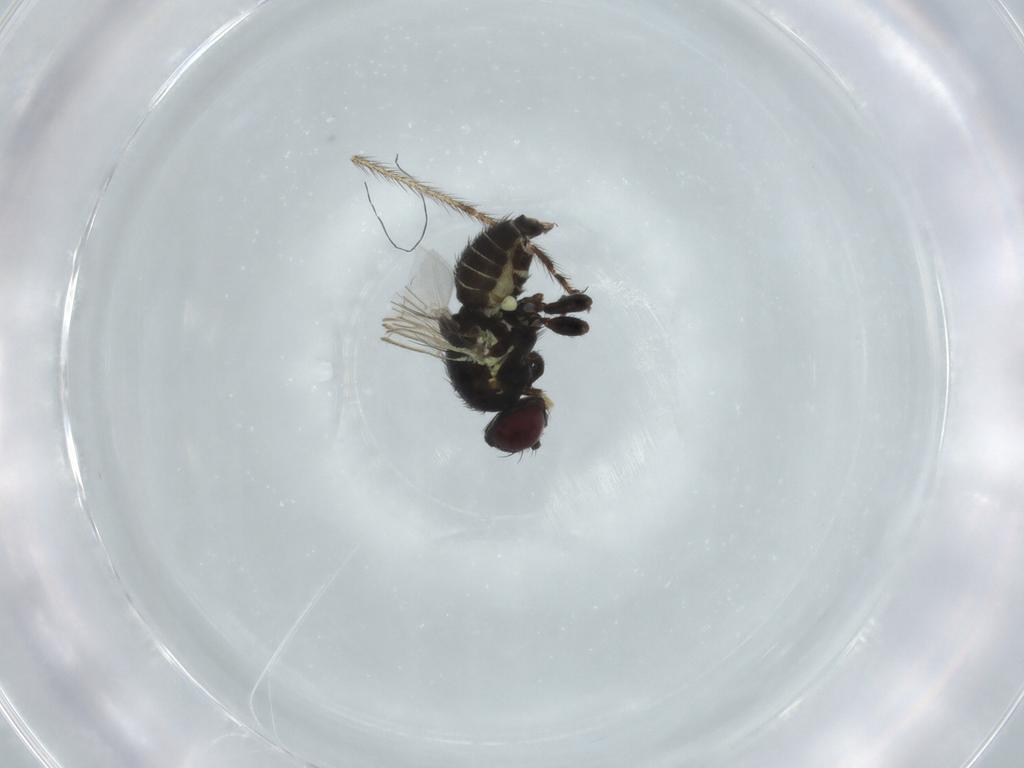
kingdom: Animalia
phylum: Arthropoda
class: Insecta
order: Diptera
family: Agromyzidae
